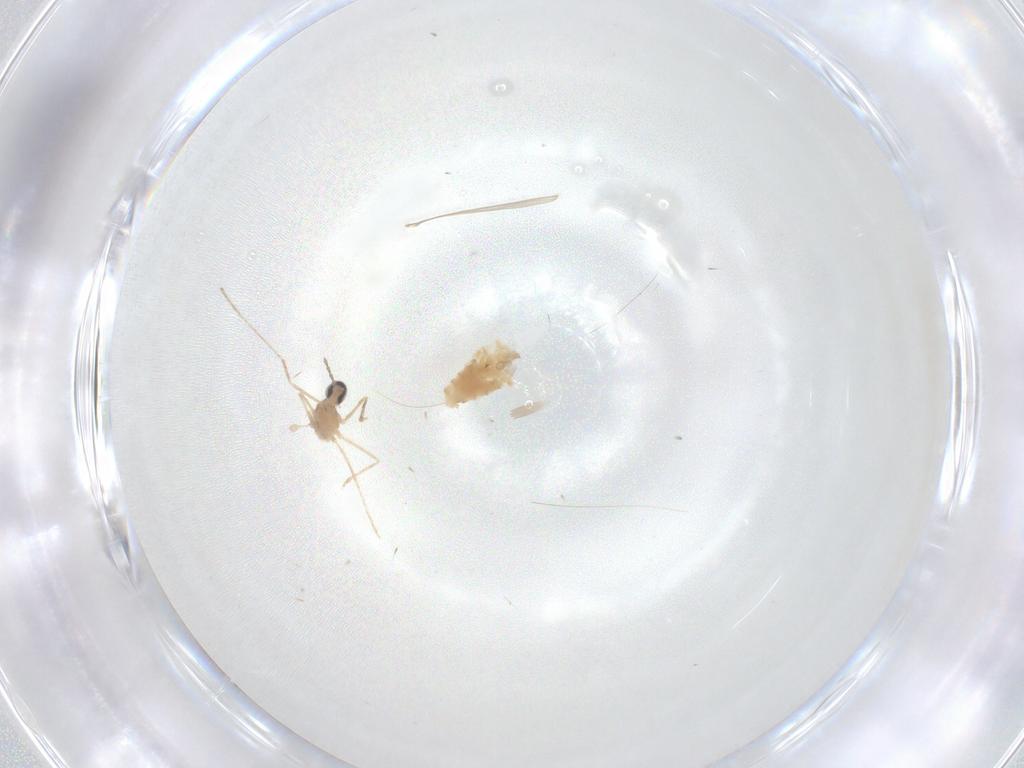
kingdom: Animalia
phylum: Arthropoda
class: Insecta
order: Diptera
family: Cecidomyiidae
